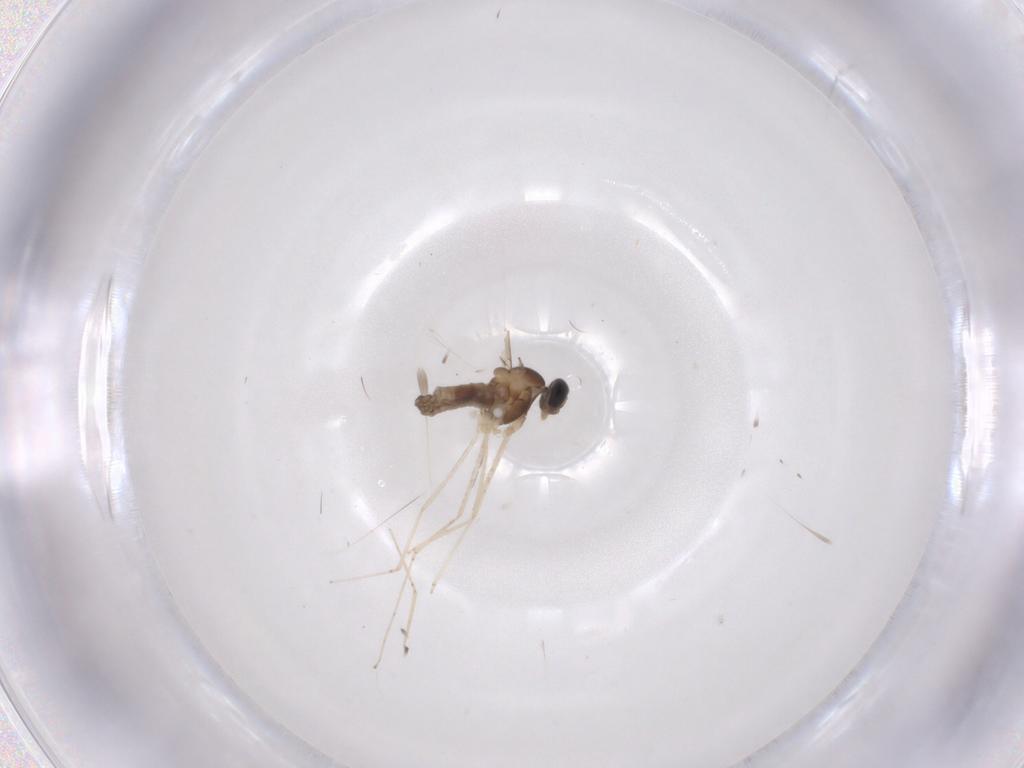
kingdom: Animalia
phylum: Arthropoda
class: Insecta
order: Diptera
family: Cecidomyiidae
